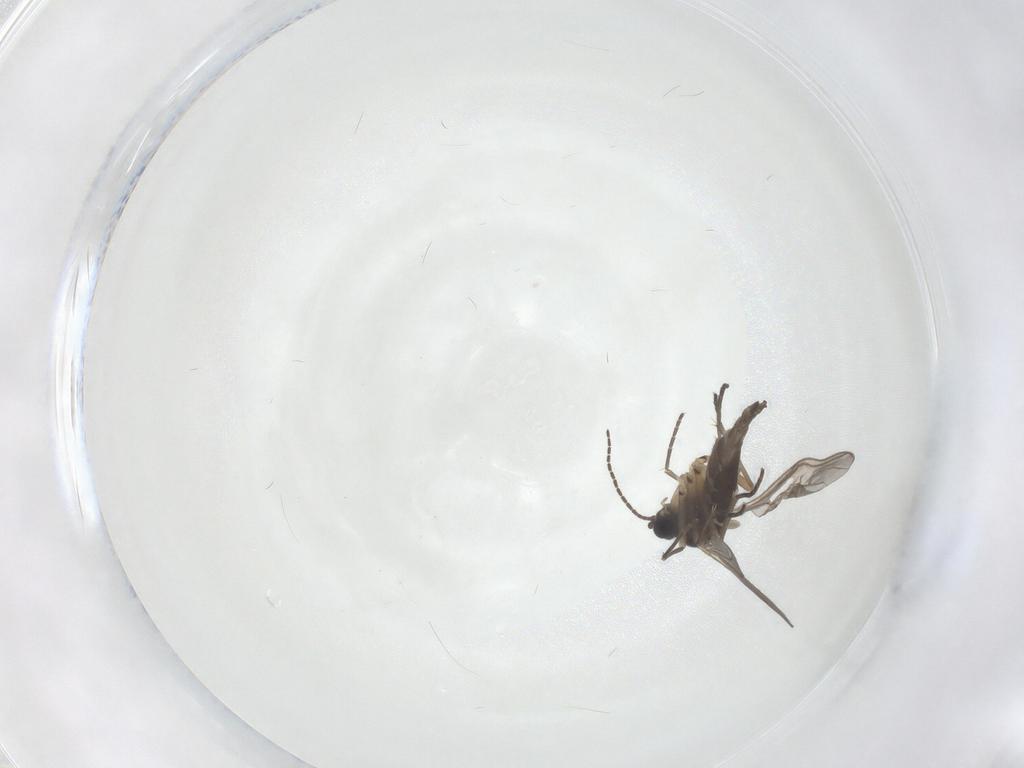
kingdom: Animalia
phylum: Arthropoda
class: Insecta
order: Diptera
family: Sciaridae
